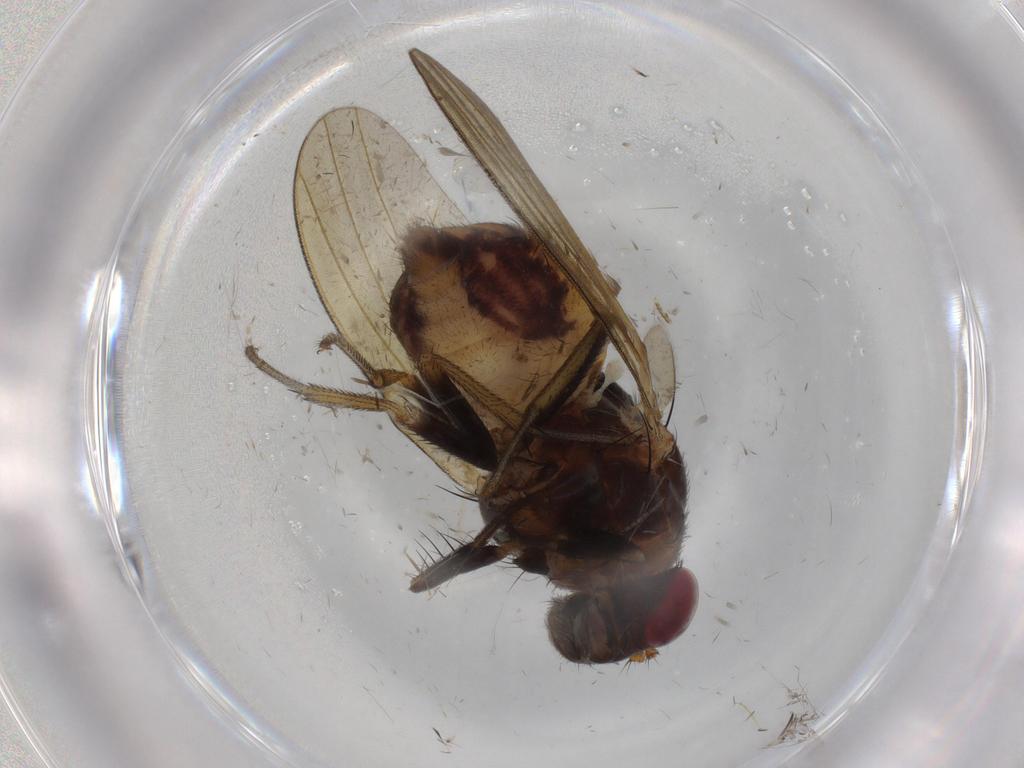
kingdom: Animalia
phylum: Arthropoda
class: Insecta
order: Diptera
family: Lauxaniidae
